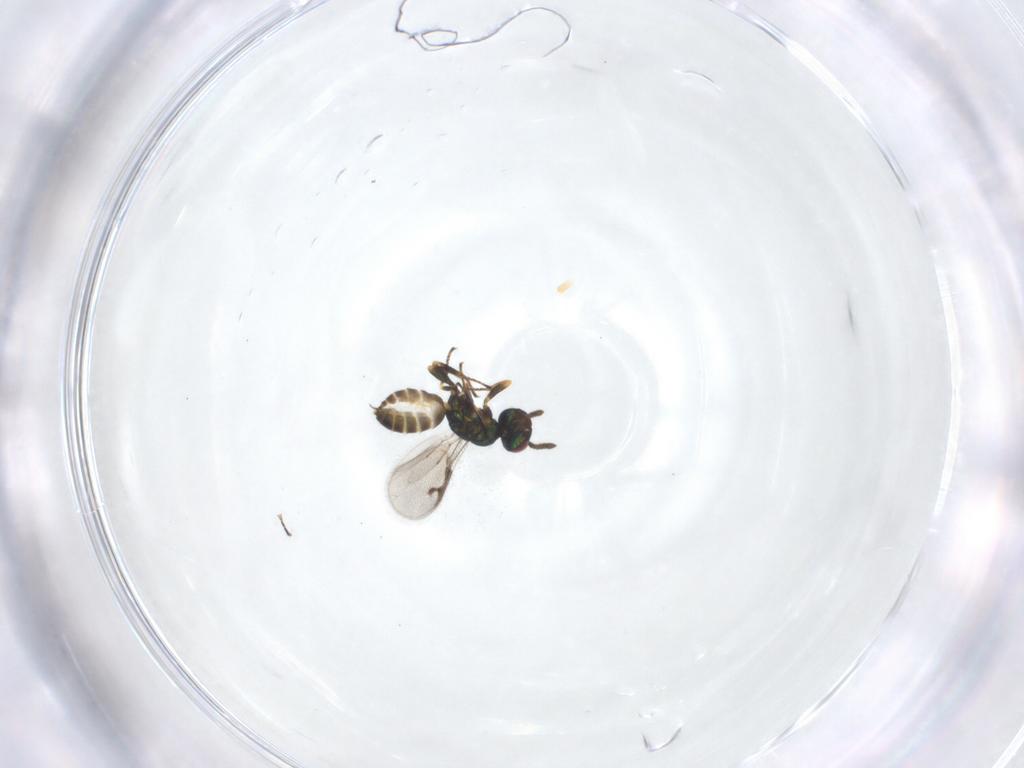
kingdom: Animalia
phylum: Arthropoda
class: Insecta
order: Hymenoptera
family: Pteromalidae
